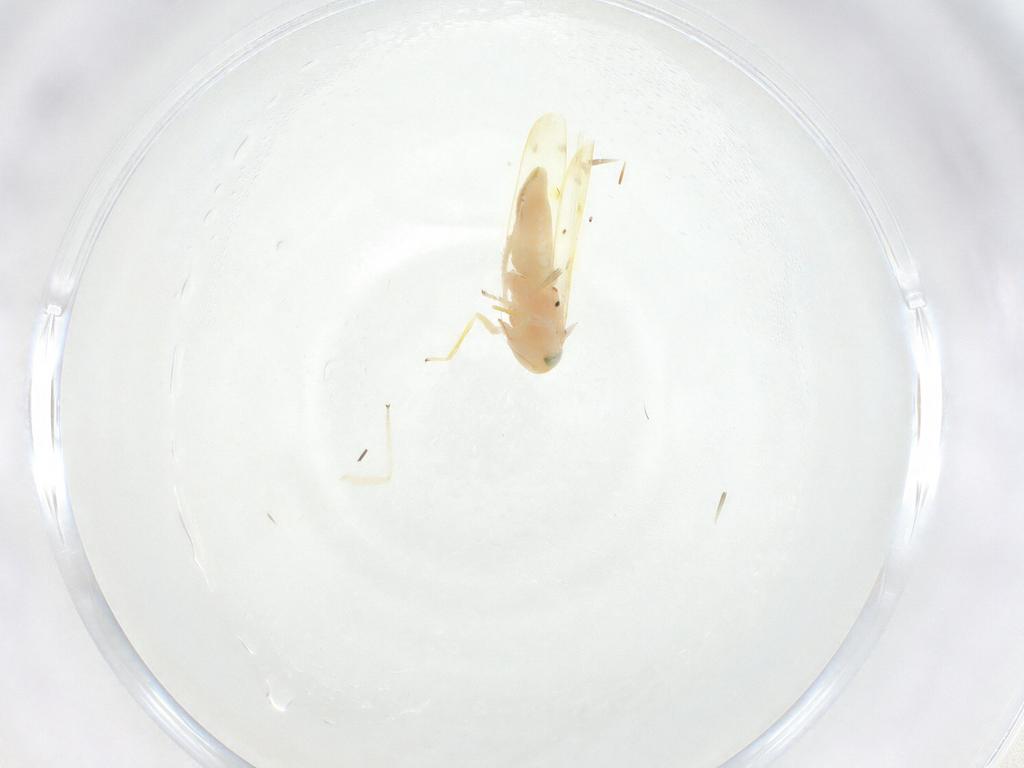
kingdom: Animalia
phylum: Arthropoda
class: Insecta
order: Hemiptera
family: Cicadellidae
